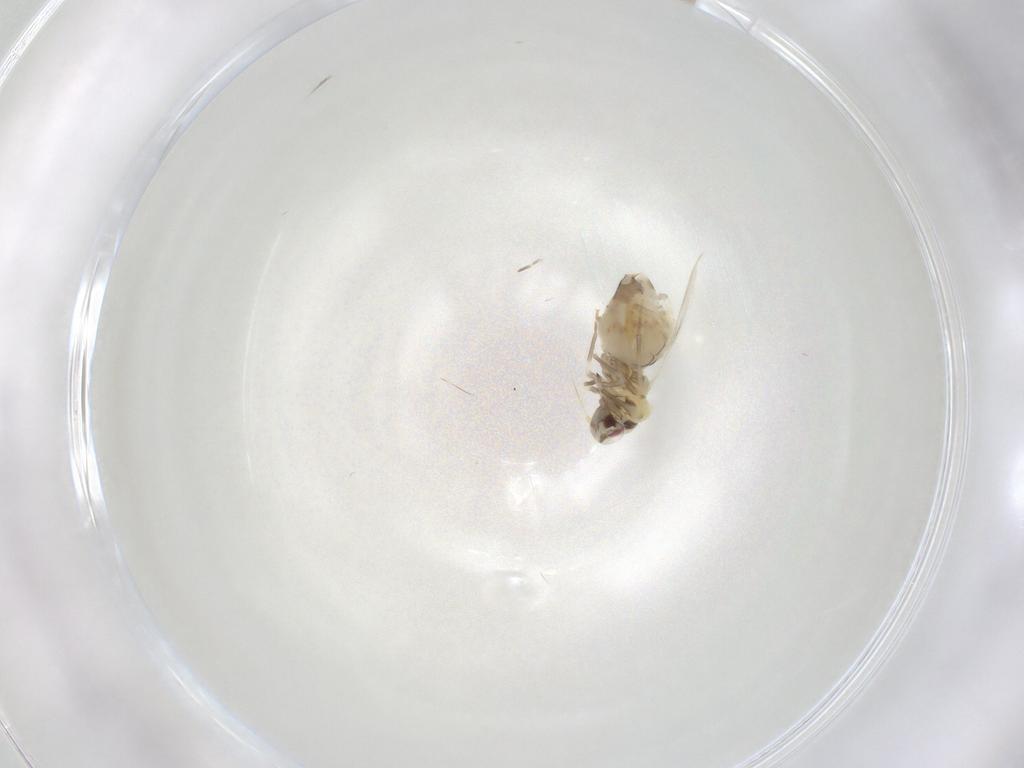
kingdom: Animalia
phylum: Arthropoda
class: Insecta
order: Hemiptera
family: Aleyrodidae
